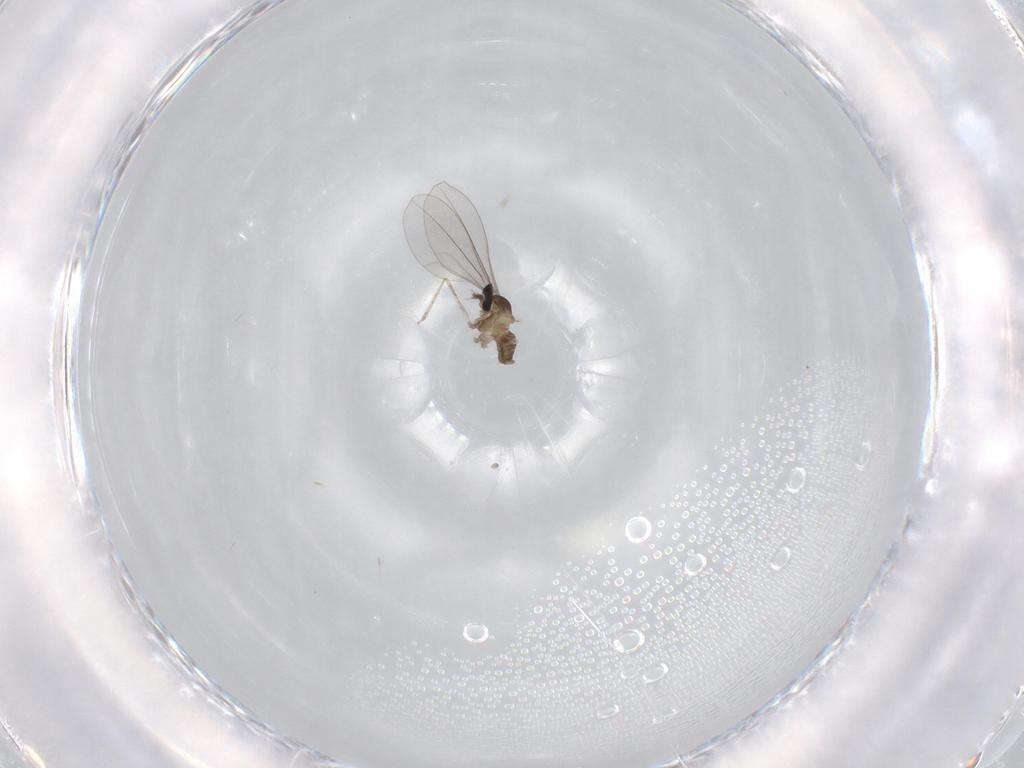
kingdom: Animalia
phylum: Arthropoda
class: Insecta
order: Diptera
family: Cecidomyiidae
